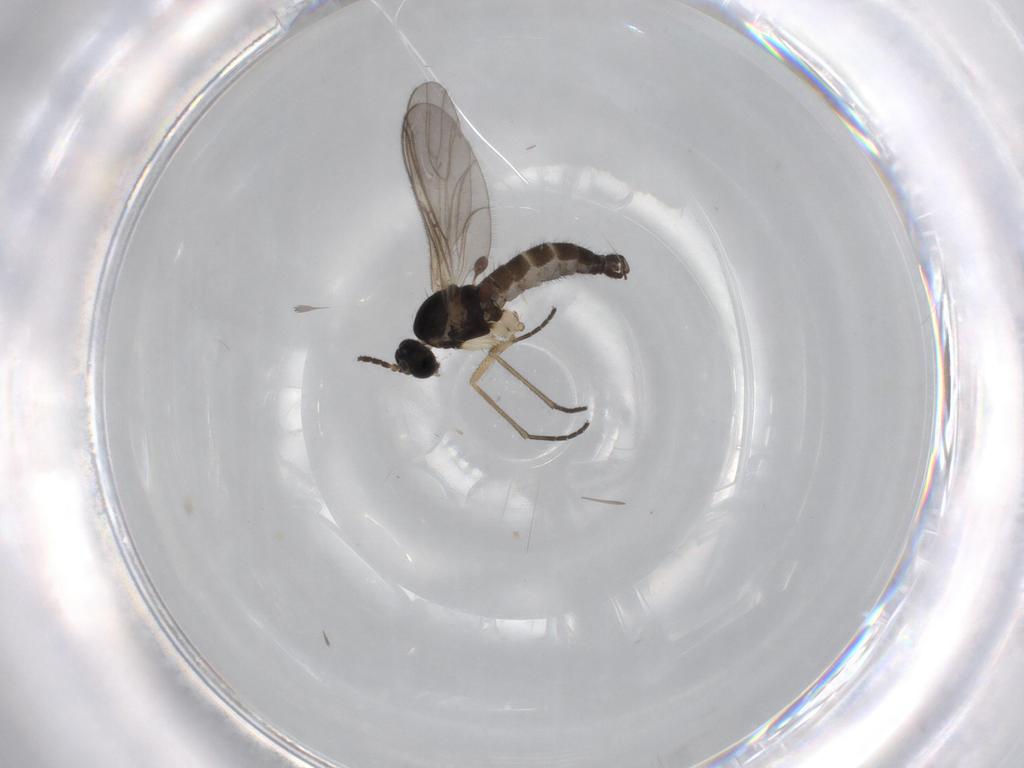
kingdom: Animalia
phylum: Arthropoda
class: Insecta
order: Diptera
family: Sciaridae
